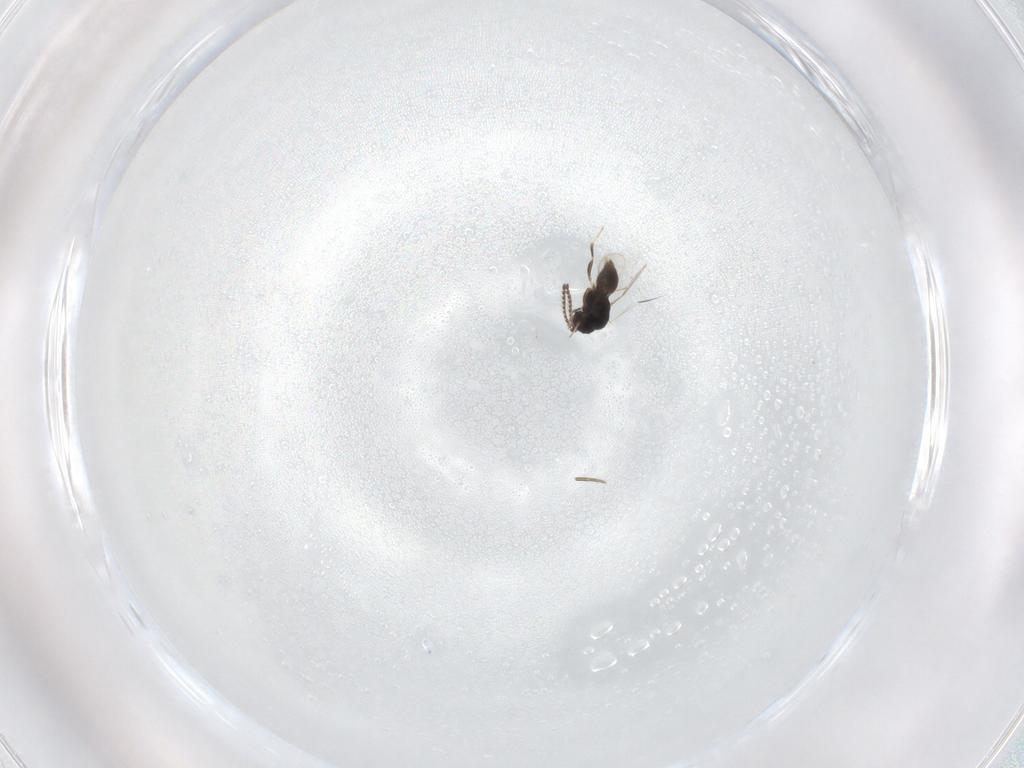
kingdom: Animalia
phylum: Arthropoda
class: Insecta
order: Hymenoptera
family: Scelionidae
